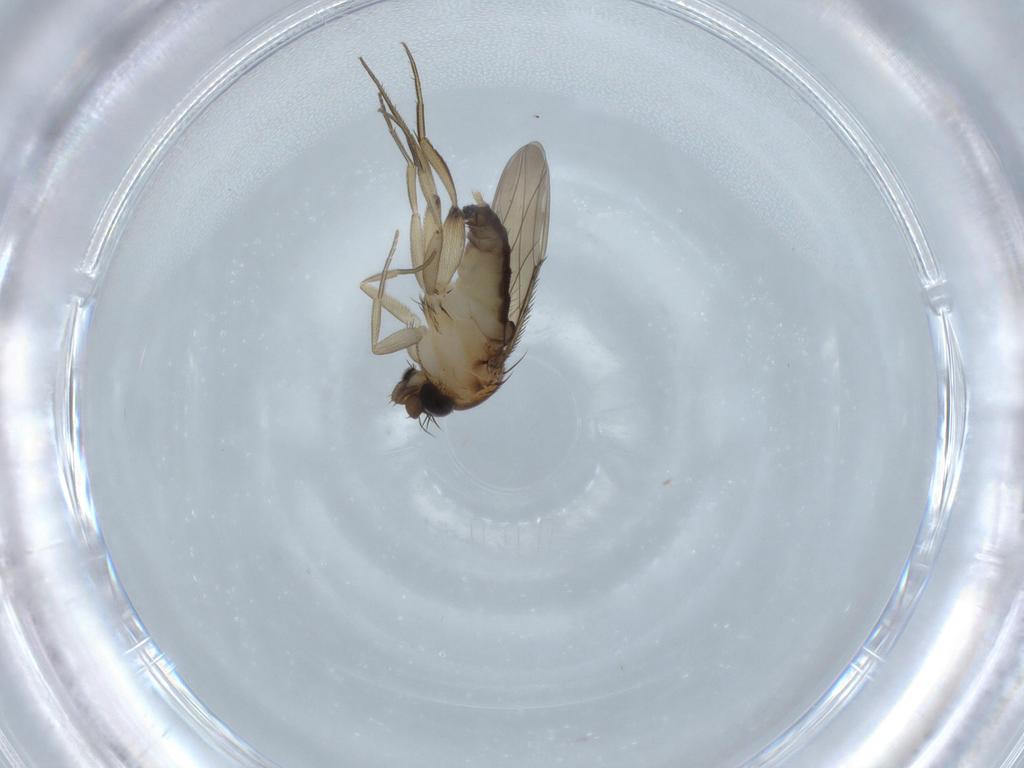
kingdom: Animalia
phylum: Arthropoda
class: Insecta
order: Diptera
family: Phoridae
